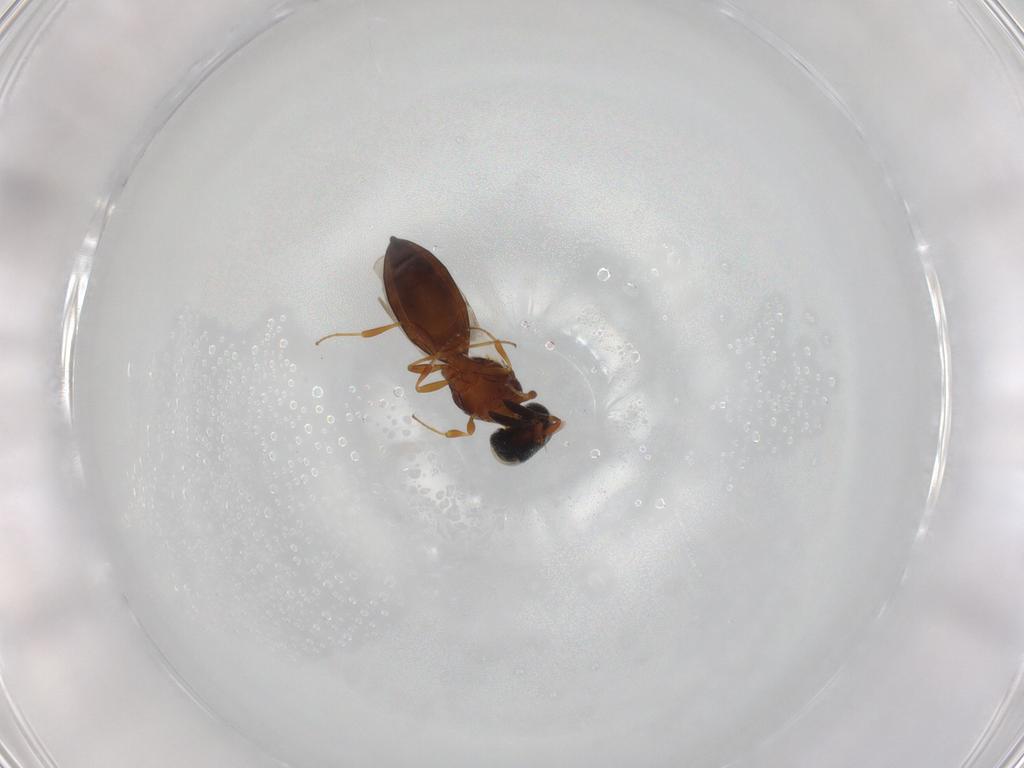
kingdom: Animalia
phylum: Arthropoda
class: Insecta
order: Hymenoptera
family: Scelionidae
